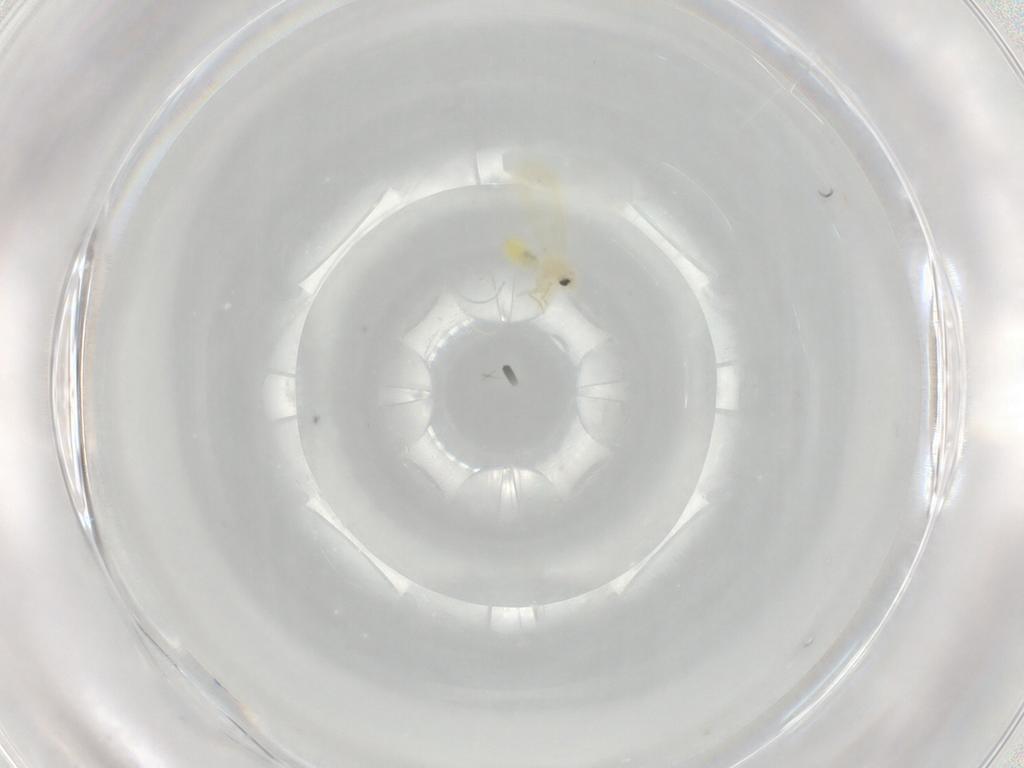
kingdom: Animalia
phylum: Arthropoda
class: Insecta
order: Hemiptera
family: Aleyrodidae
